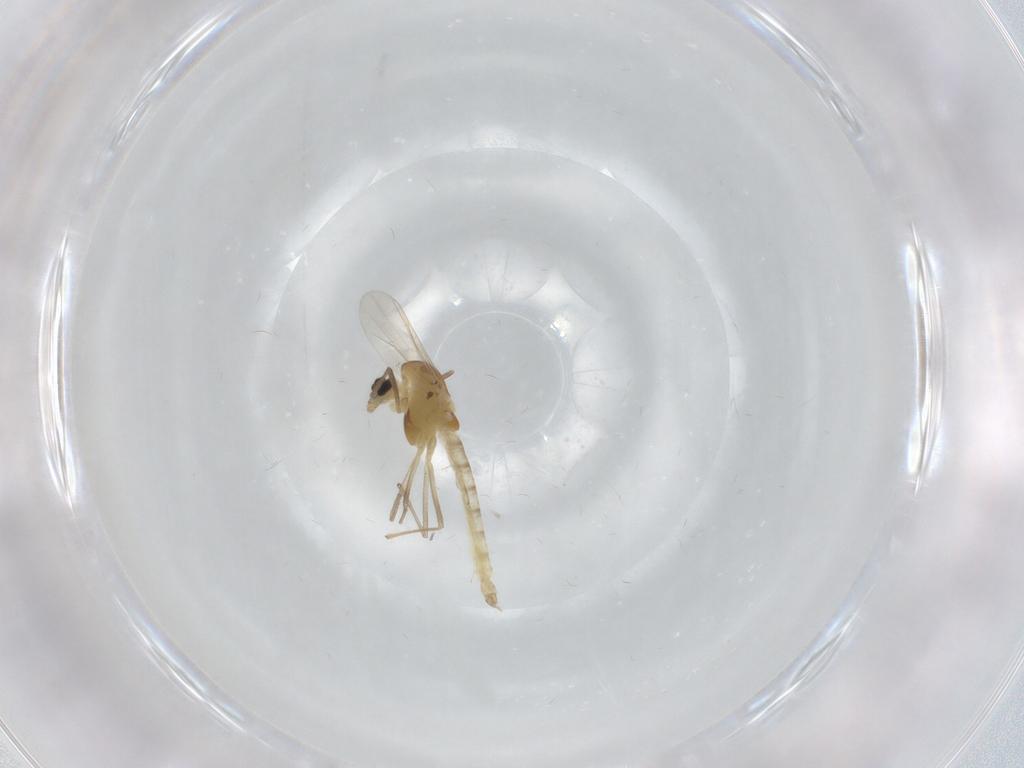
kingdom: Animalia
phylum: Arthropoda
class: Insecta
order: Diptera
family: Chironomidae
